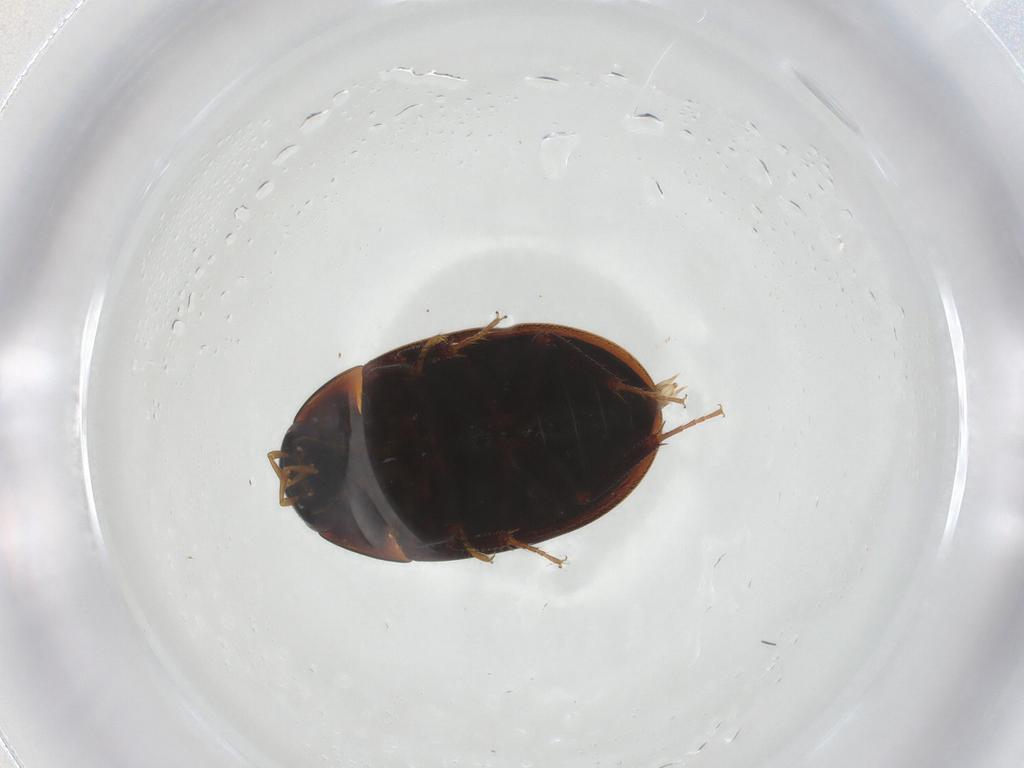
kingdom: Animalia
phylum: Arthropoda
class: Insecta
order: Coleoptera
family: Hydrophilidae
